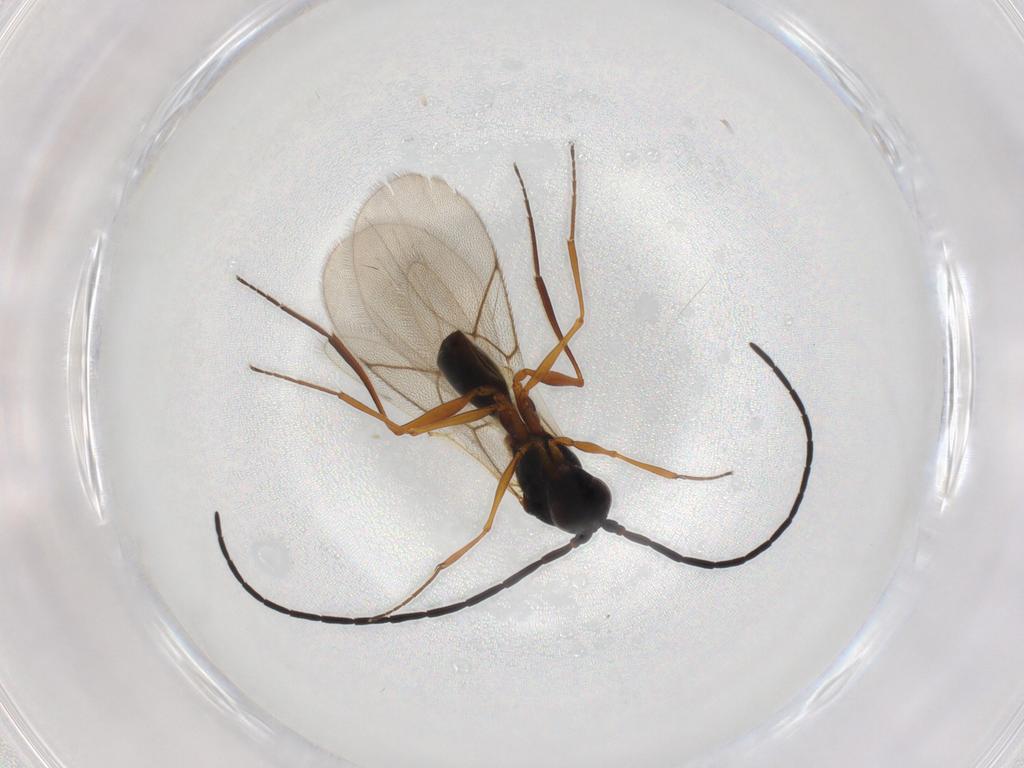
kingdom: Animalia
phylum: Arthropoda
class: Insecta
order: Hymenoptera
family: Figitidae
